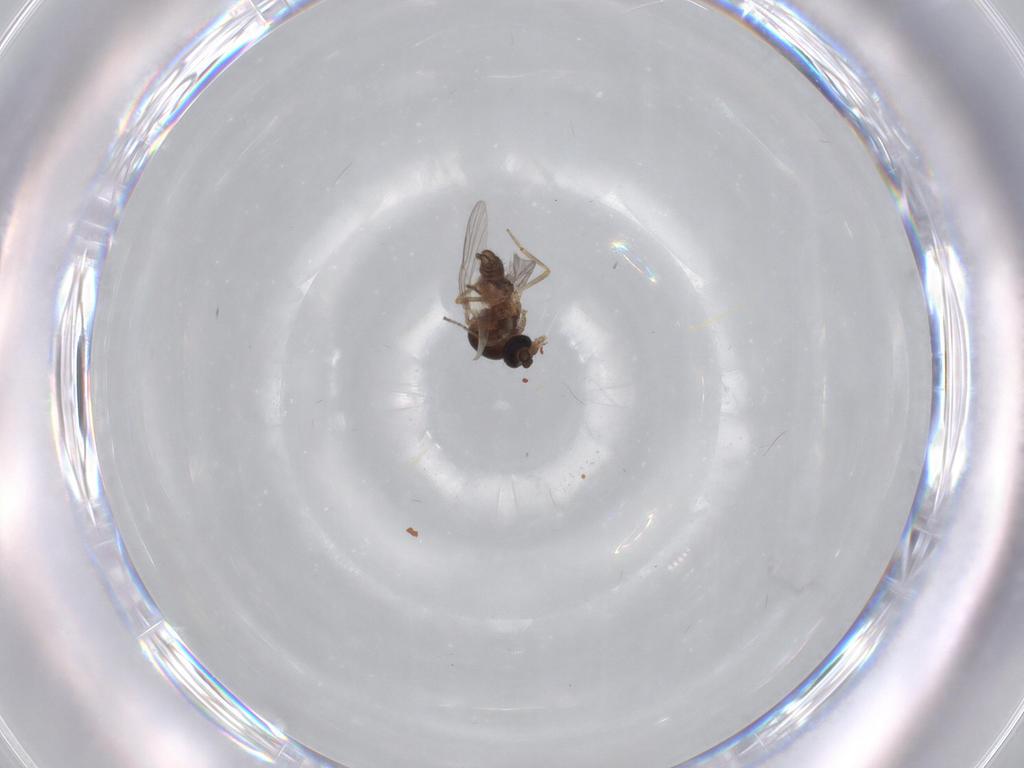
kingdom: Animalia
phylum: Arthropoda
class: Insecta
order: Diptera
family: Ceratopogonidae
